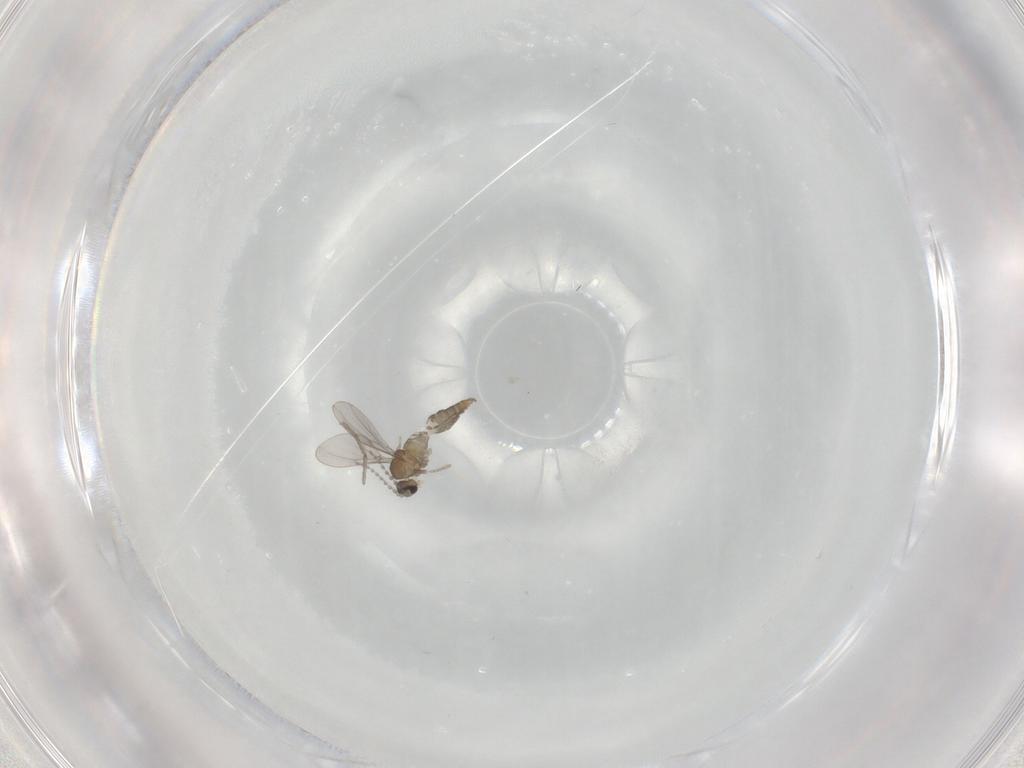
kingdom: Animalia
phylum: Arthropoda
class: Insecta
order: Diptera
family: Cecidomyiidae
